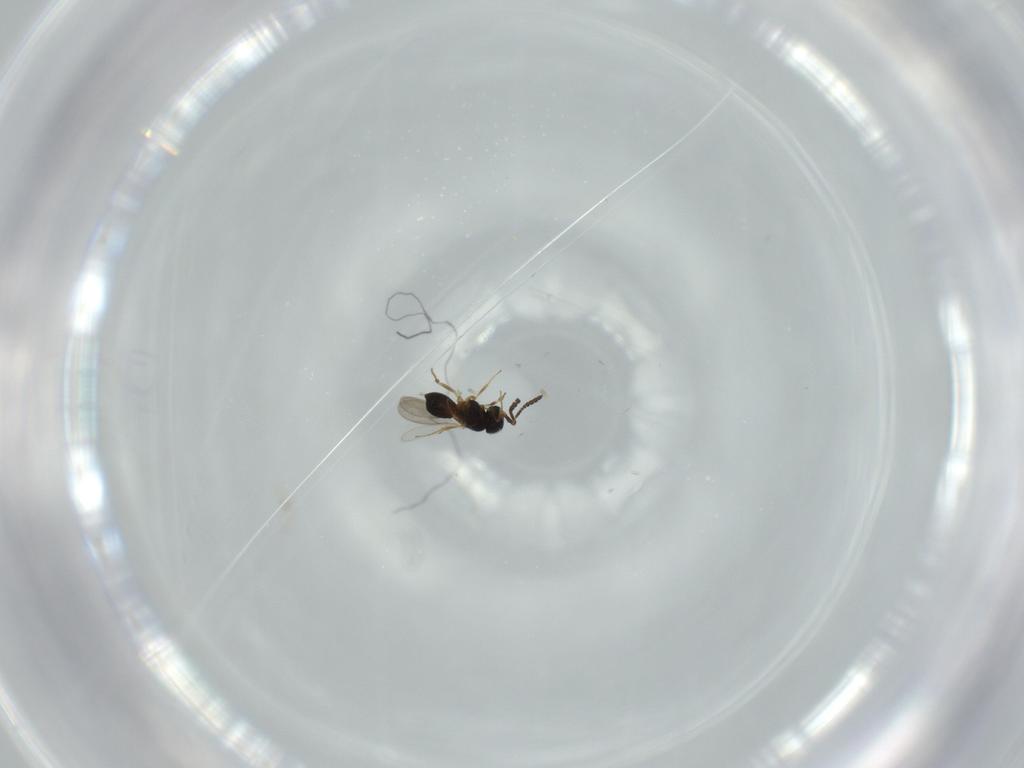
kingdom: Animalia
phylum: Arthropoda
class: Insecta
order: Hymenoptera
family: Scelionidae
